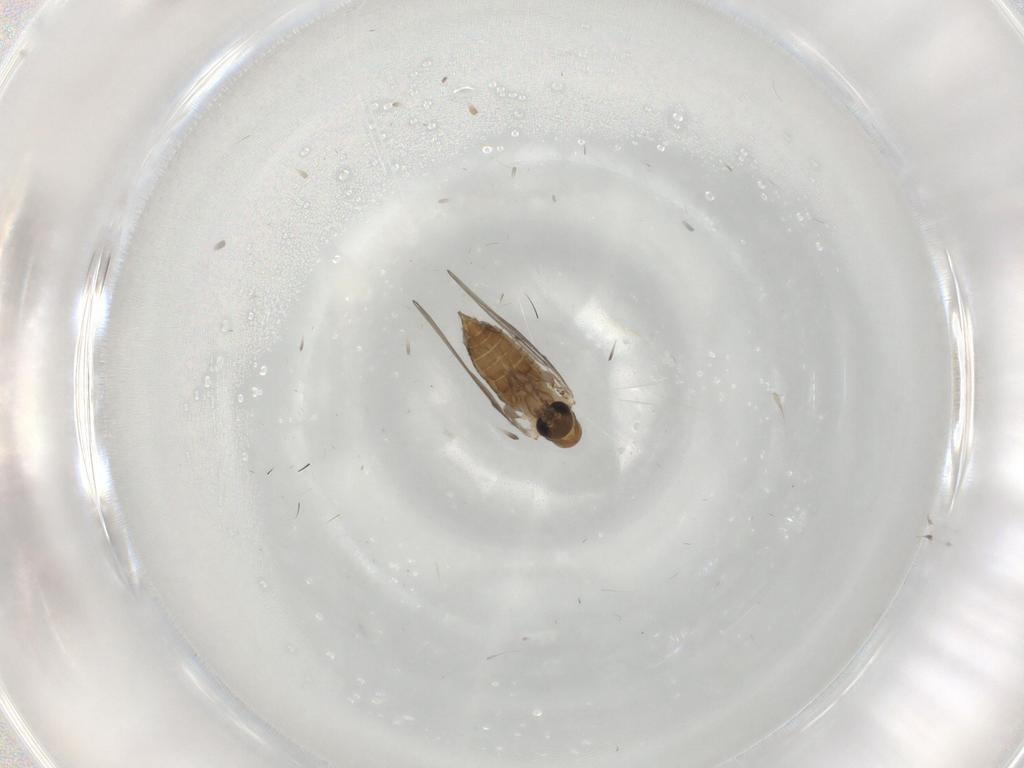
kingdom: Animalia
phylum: Arthropoda
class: Insecta
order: Diptera
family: Psychodidae
